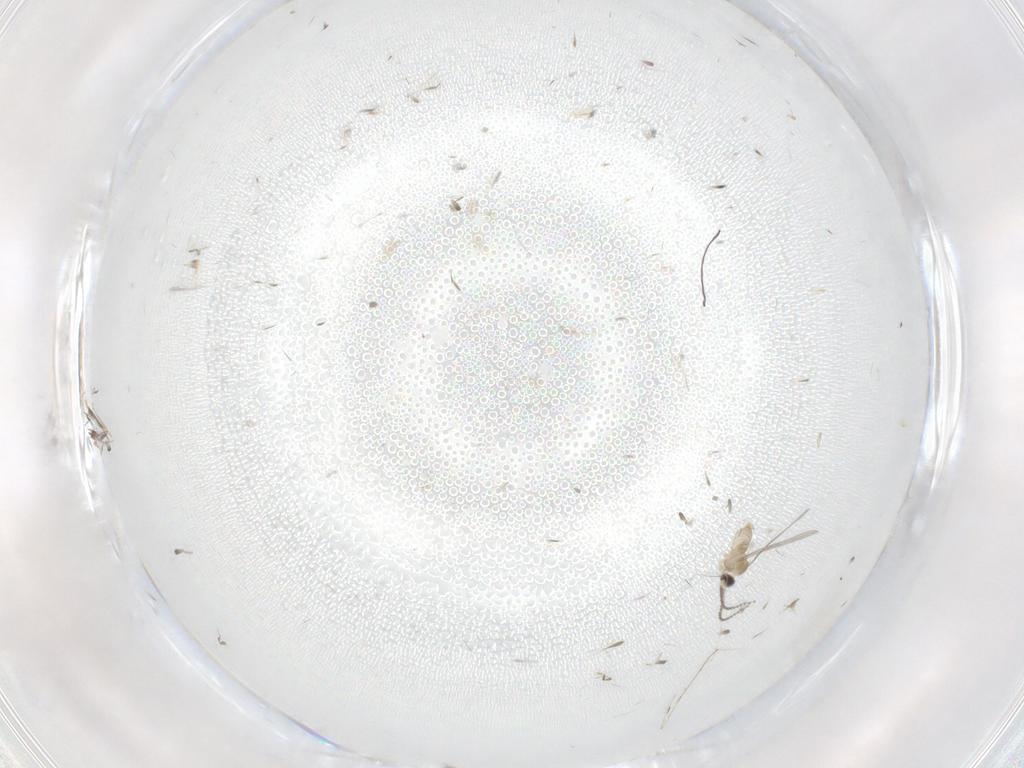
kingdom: Animalia
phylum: Arthropoda
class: Insecta
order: Diptera
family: Cecidomyiidae
